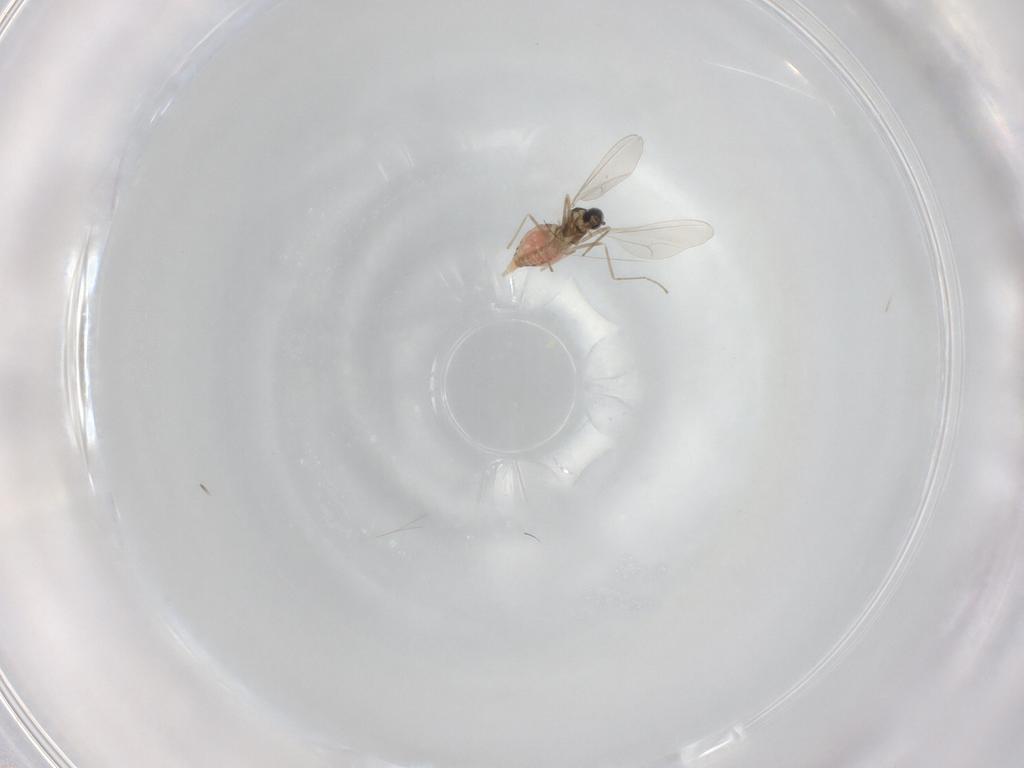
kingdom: Animalia
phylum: Arthropoda
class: Insecta
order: Diptera
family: Cecidomyiidae
